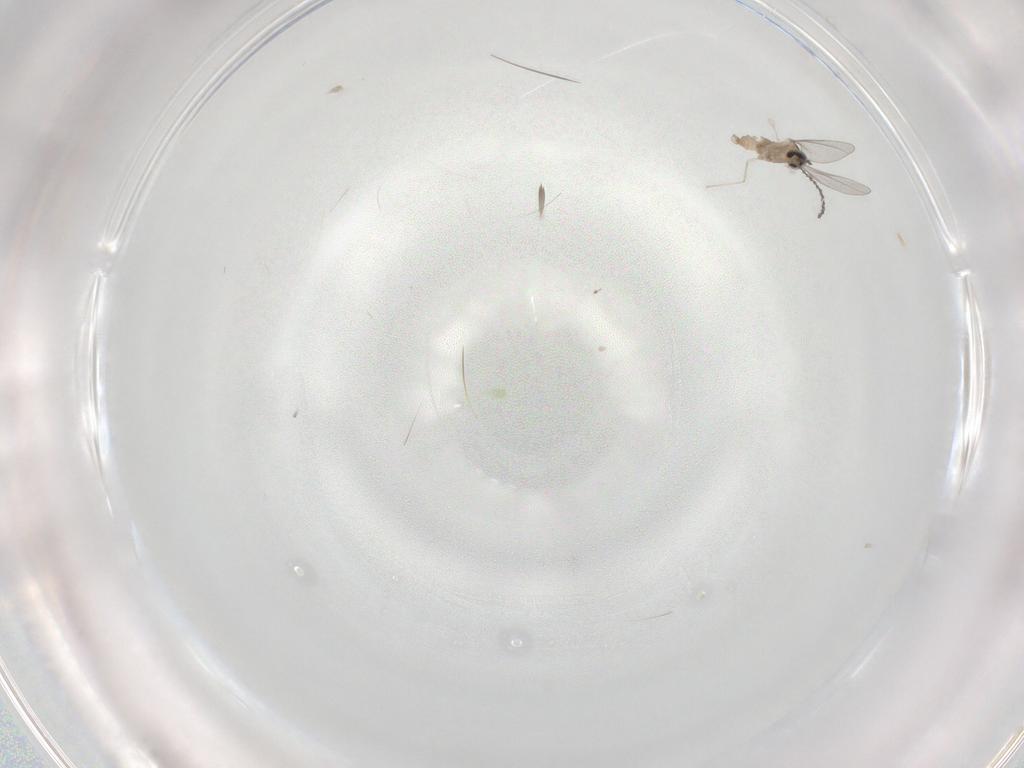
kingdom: Animalia
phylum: Arthropoda
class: Insecta
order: Diptera
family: Cecidomyiidae
